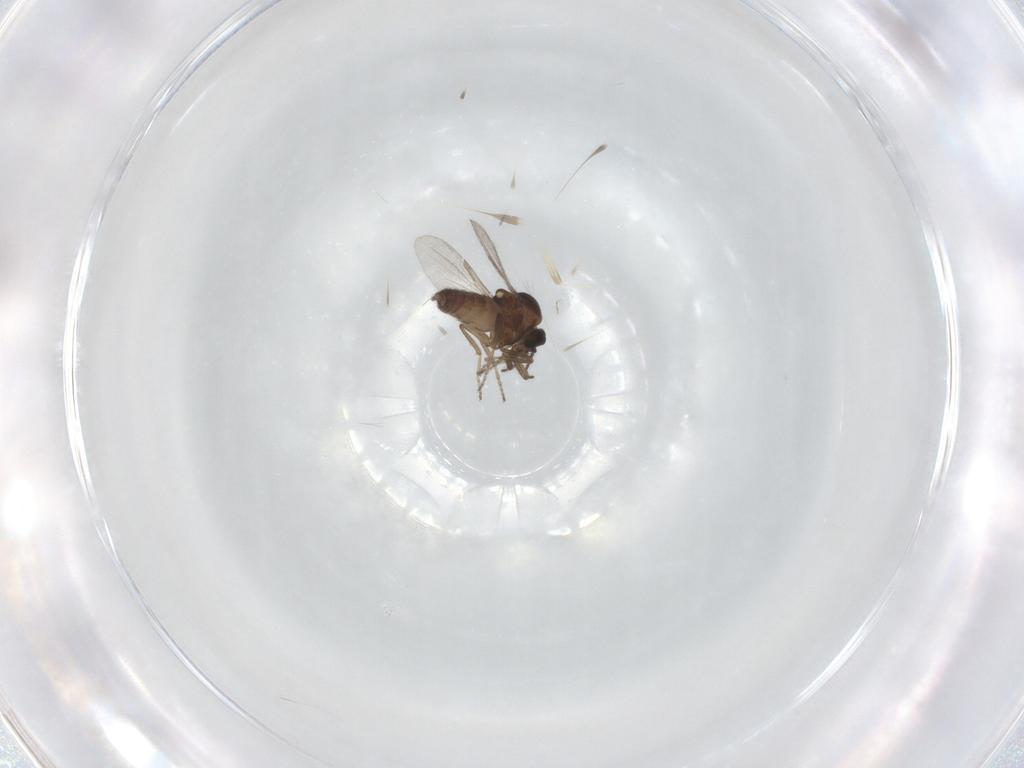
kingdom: Animalia
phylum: Arthropoda
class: Insecta
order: Diptera
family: Ceratopogonidae
